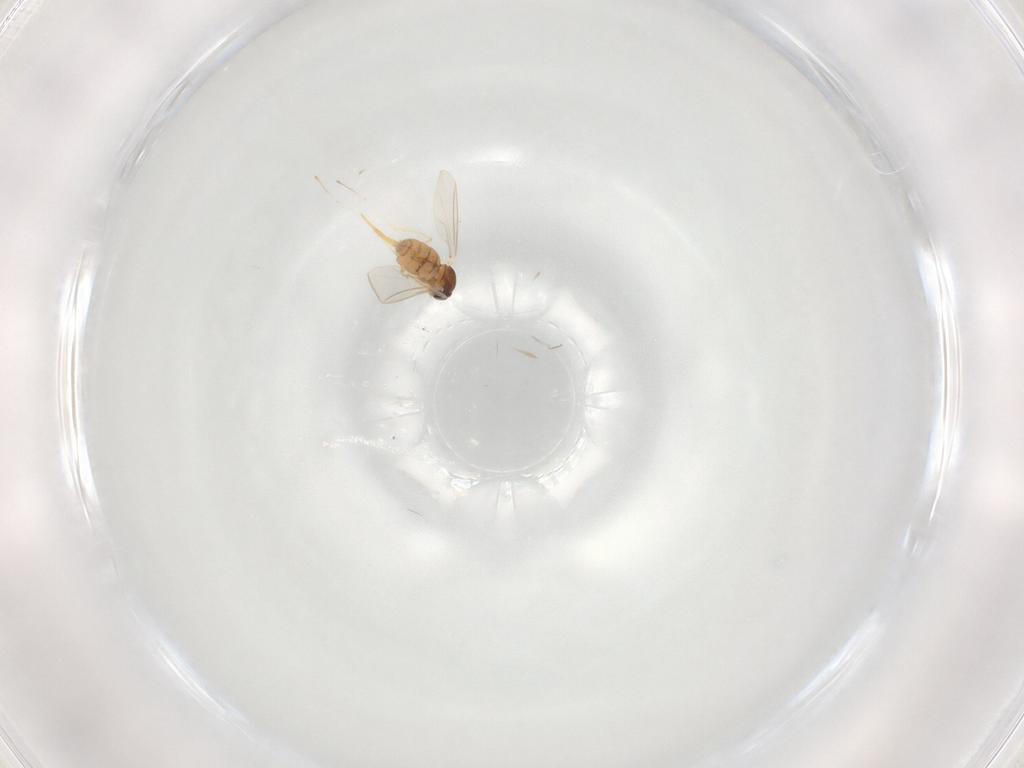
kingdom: Animalia
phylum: Arthropoda
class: Insecta
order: Diptera
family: Cecidomyiidae
